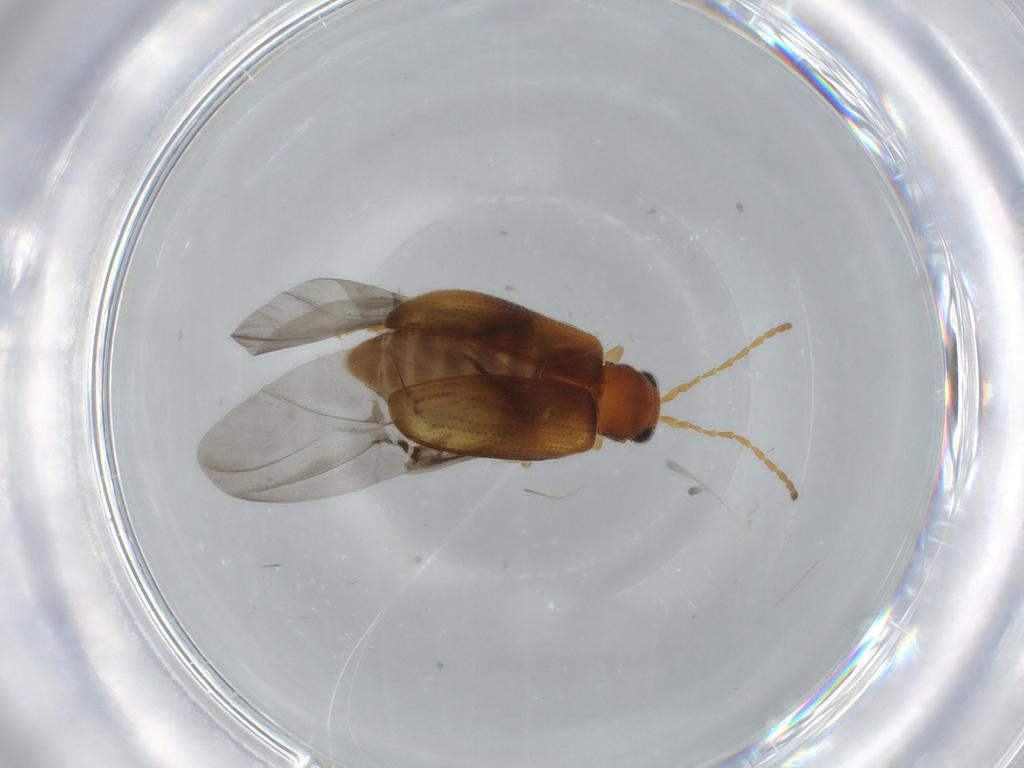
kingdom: Animalia
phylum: Arthropoda
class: Insecta
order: Coleoptera
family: Chrysomelidae
